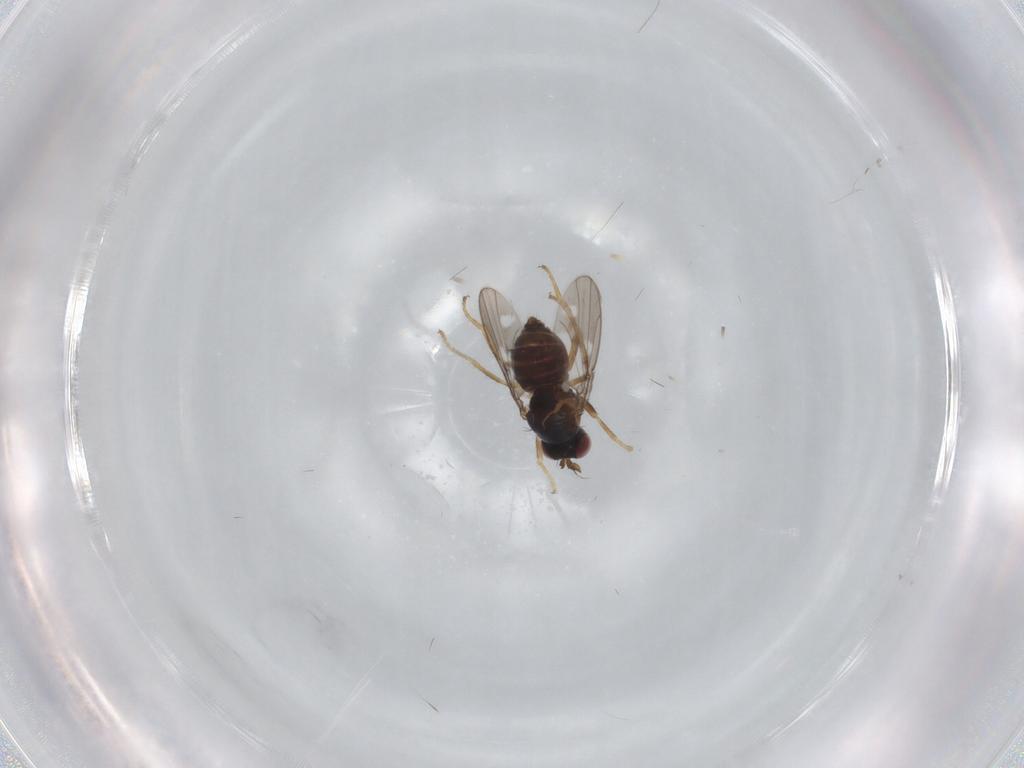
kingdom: Animalia
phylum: Arthropoda
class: Insecta
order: Diptera
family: Ephydridae
